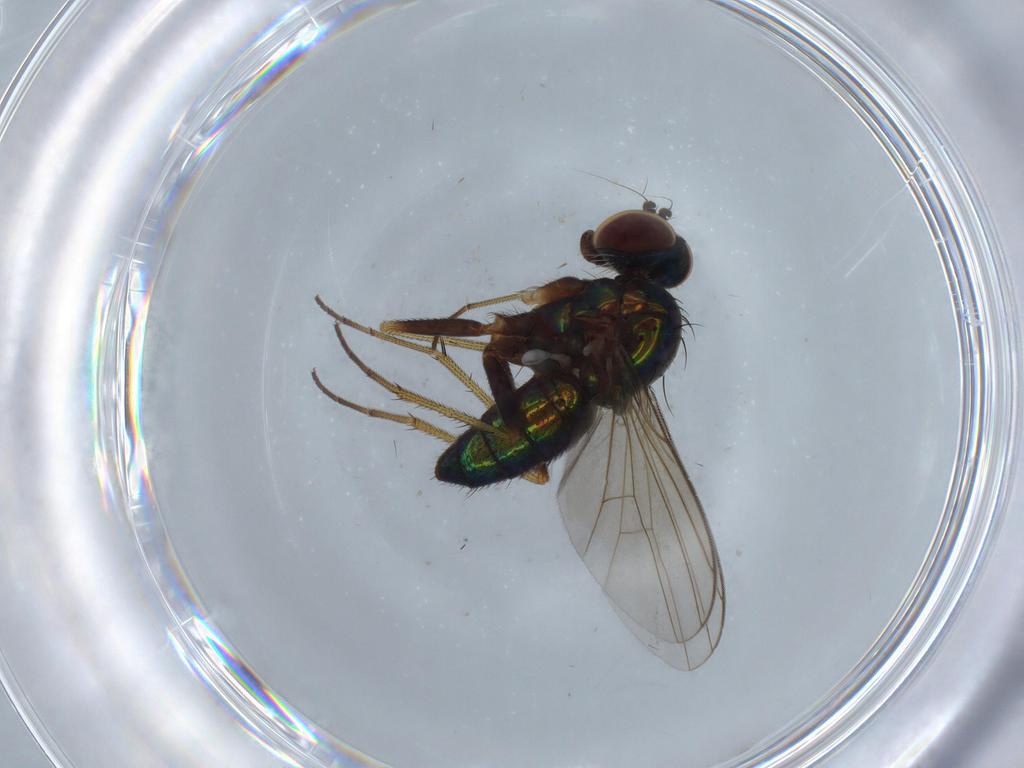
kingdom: Animalia
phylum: Arthropoda
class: Insecta
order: Diptera
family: Dolichopodidae
